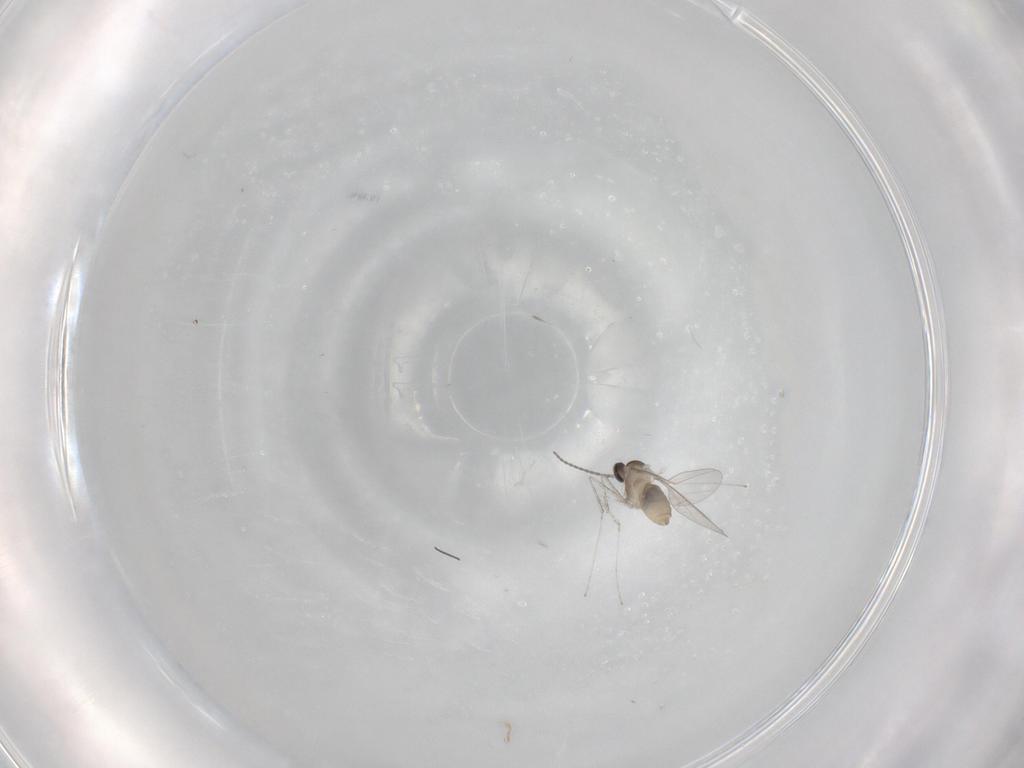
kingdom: Animalia
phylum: Arthropoda
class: Insecta
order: Diptera
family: Cecidomyiidae
